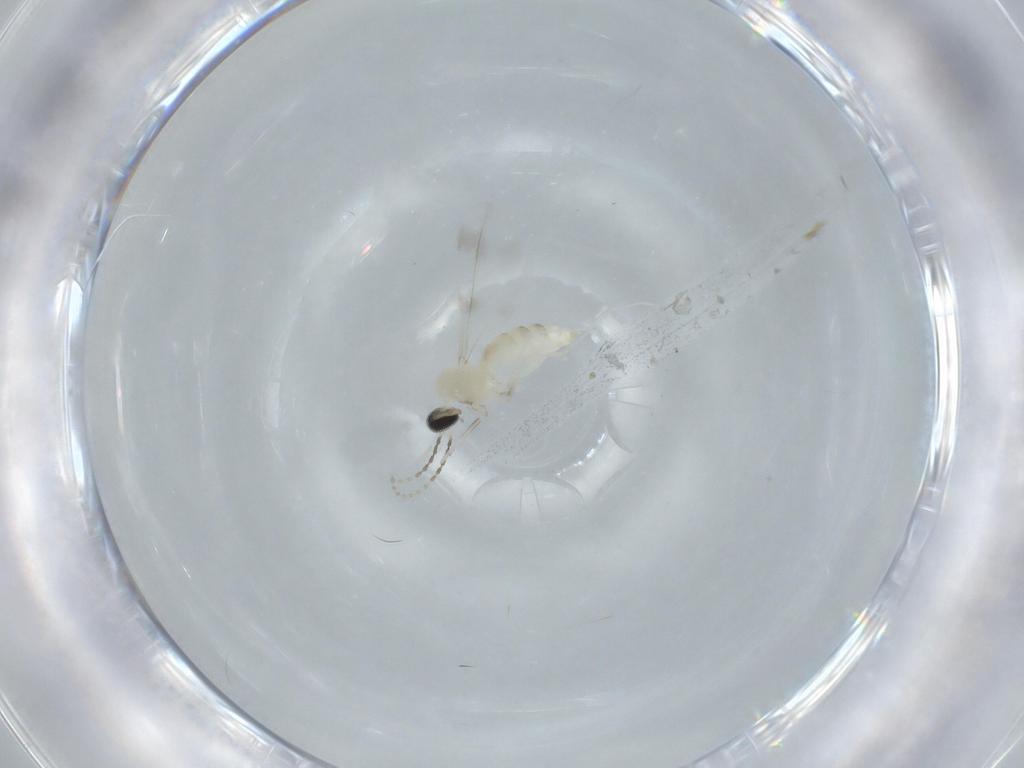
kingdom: Animalia
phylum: Arthropoda
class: Insecta
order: Diptera
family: Cecidomyiidae
